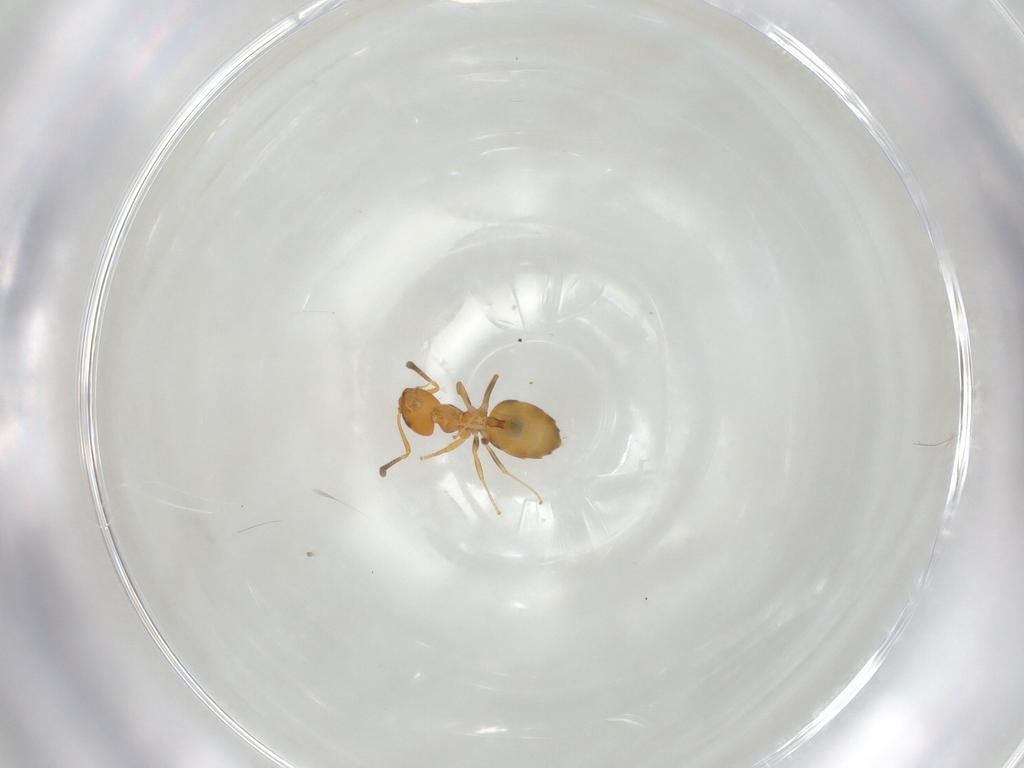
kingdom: Animalia
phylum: Arthropoda
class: Insecta
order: Hymenoptera
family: Formicidae
